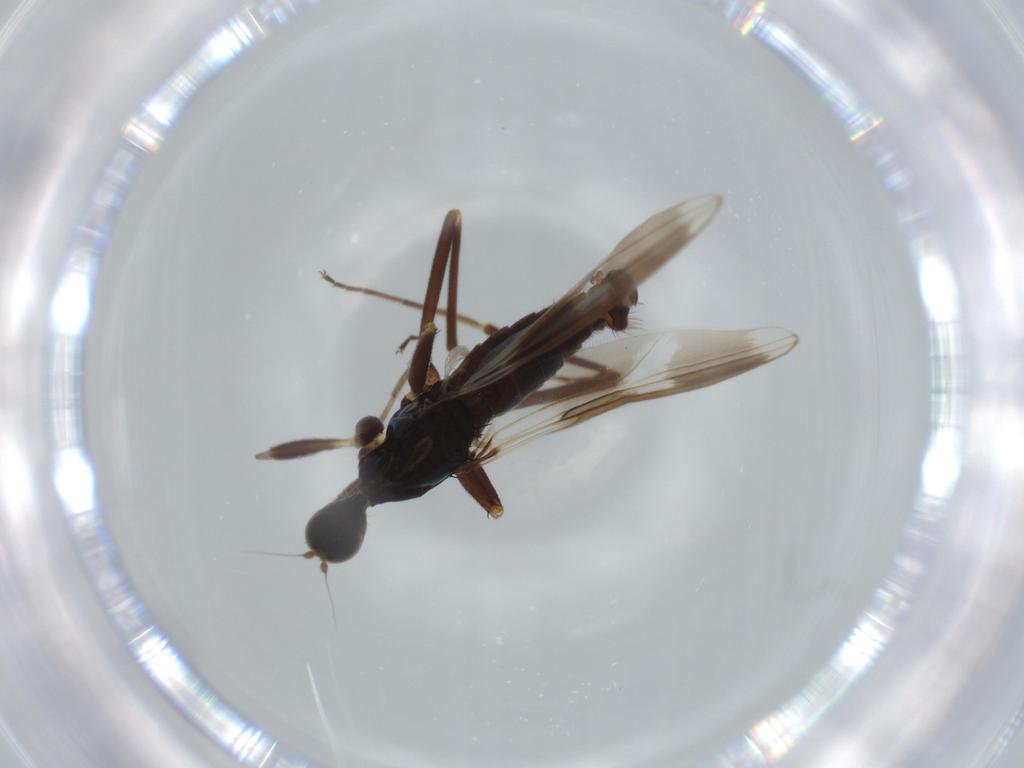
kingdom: Animalia
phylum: Arthropoda
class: Insecta
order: Diptera
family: Hybotidae
